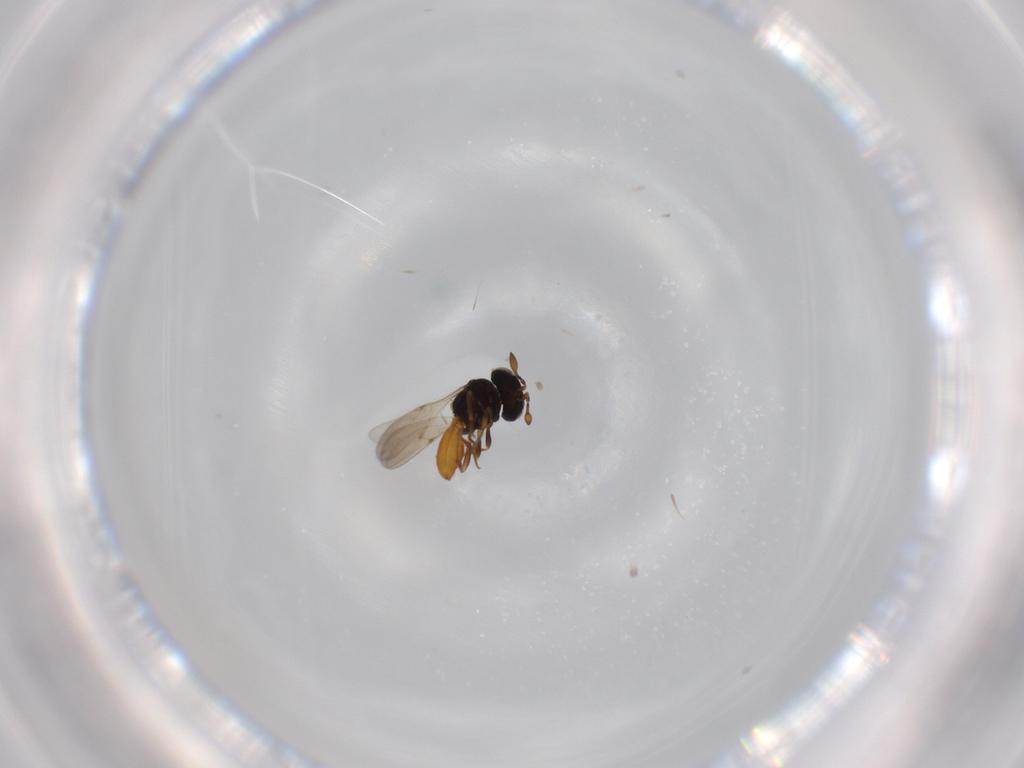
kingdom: Animalia
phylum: Arthropoda
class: Insecta
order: Hymenoptera
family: Scelionidae
